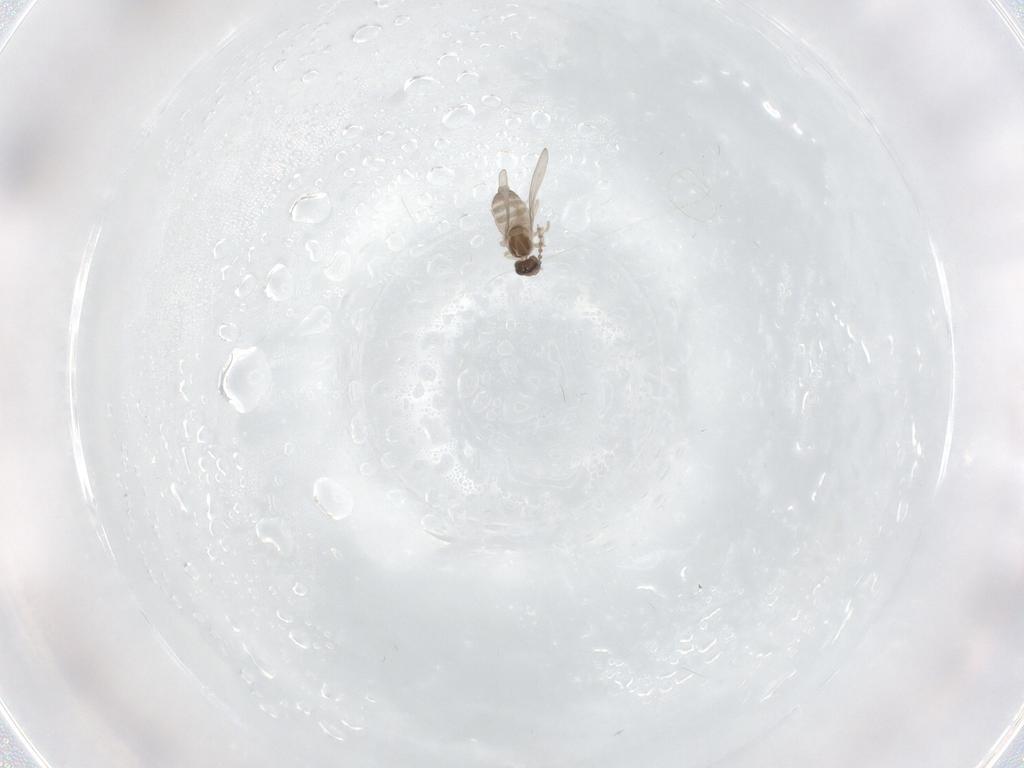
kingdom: Animalia
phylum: Arthropoda
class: Insecta
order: Diptera
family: Cecidomyiidae
